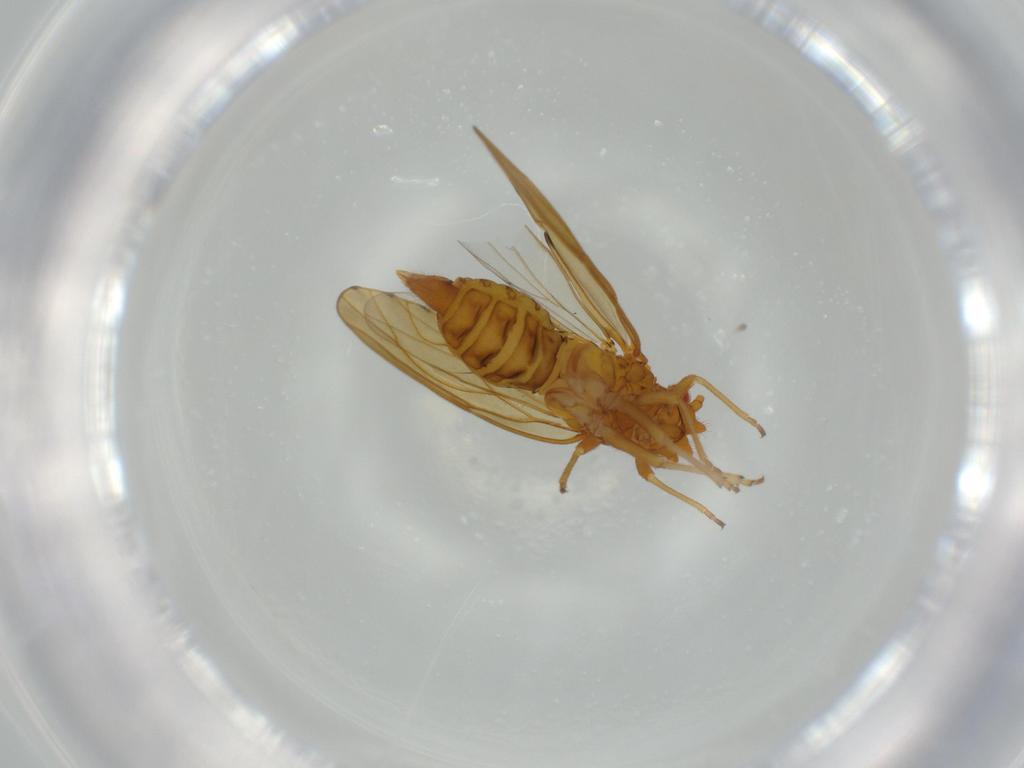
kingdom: Animalia
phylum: Arthropoda
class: Insecta
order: Hemiptera
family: Psylloidea_incertae_sedis
